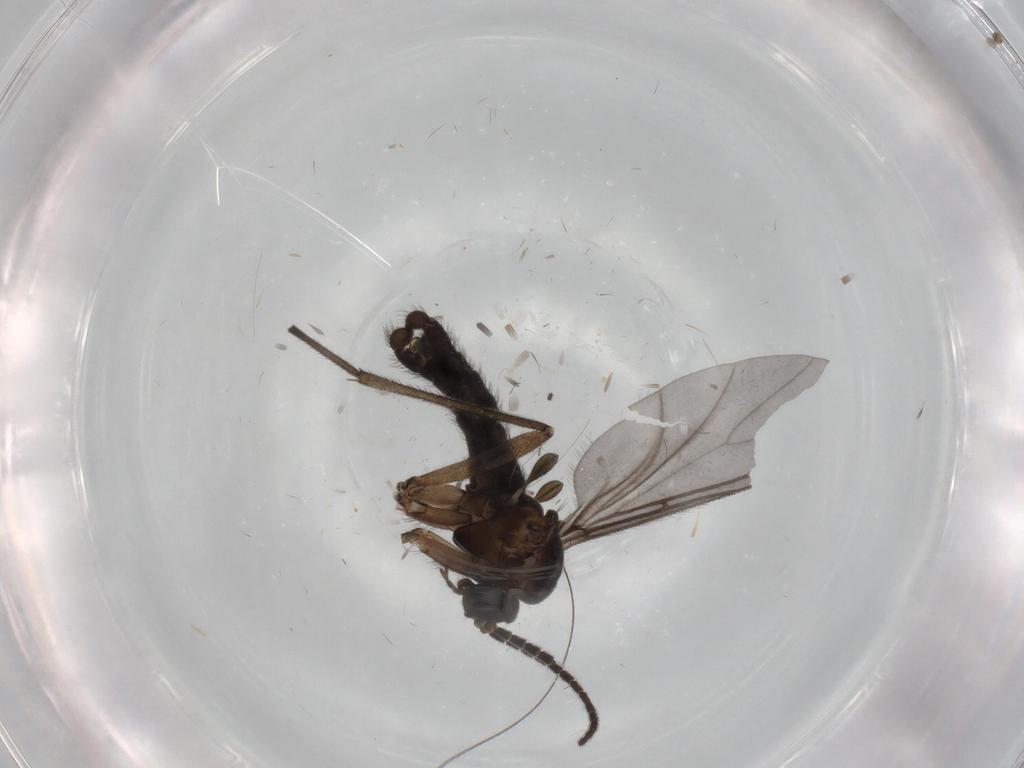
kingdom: Animalia
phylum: Arthropoda
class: Insecta
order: Diptera
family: Sciaridae
